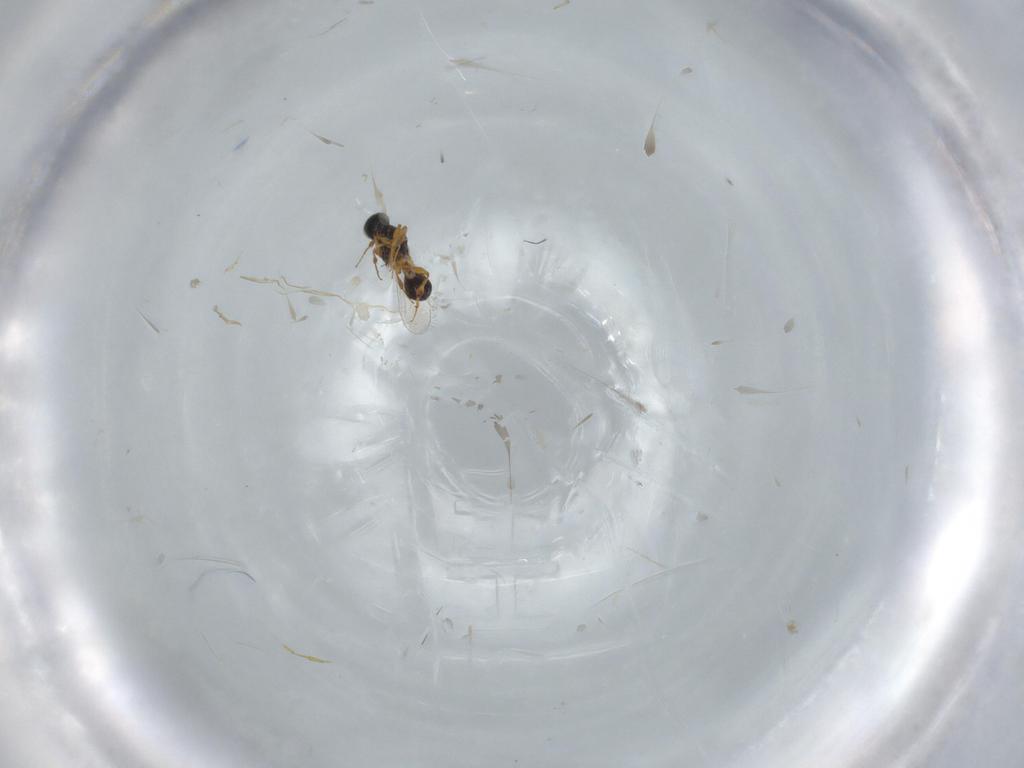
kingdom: Animalia
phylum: Arthropoda
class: Insecta
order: Hymenoptera
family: Platygastridae
